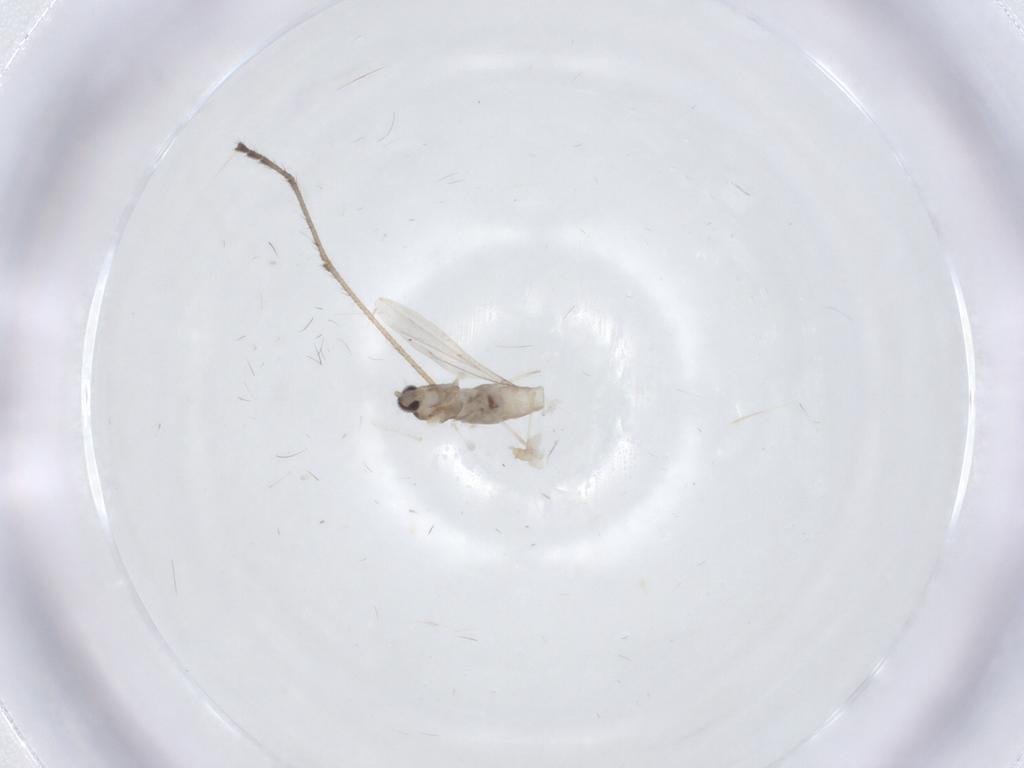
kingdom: Animalia
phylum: Arthropoda
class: Insecta
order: Diptera
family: Cecidomyiidae
